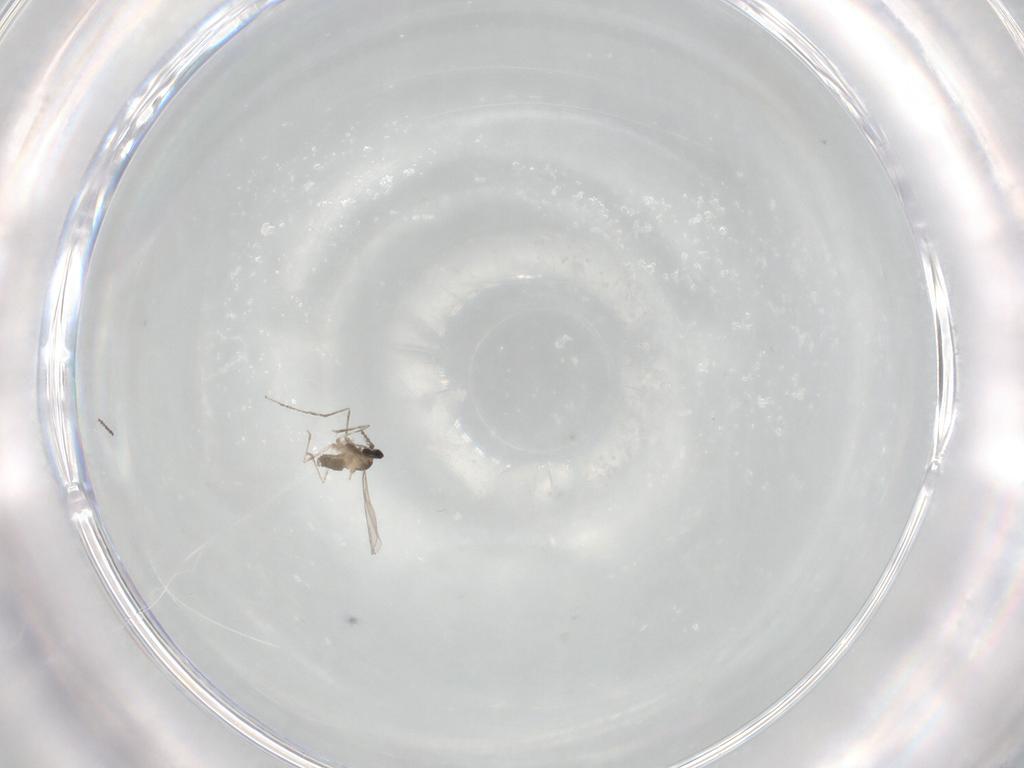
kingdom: Animalia
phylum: Arthropoda
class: Insecta
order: Diptera
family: Cecidomyiidae
